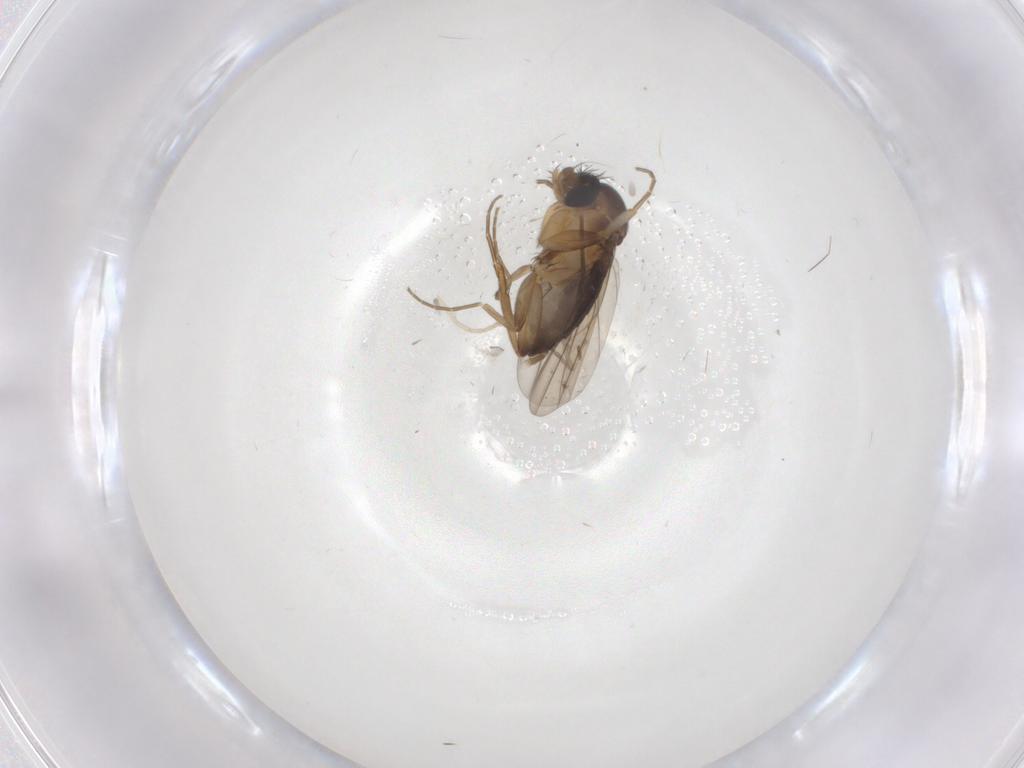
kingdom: Animalia
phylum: Arthropoda
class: Insecta
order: Diptera
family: Phoridae
